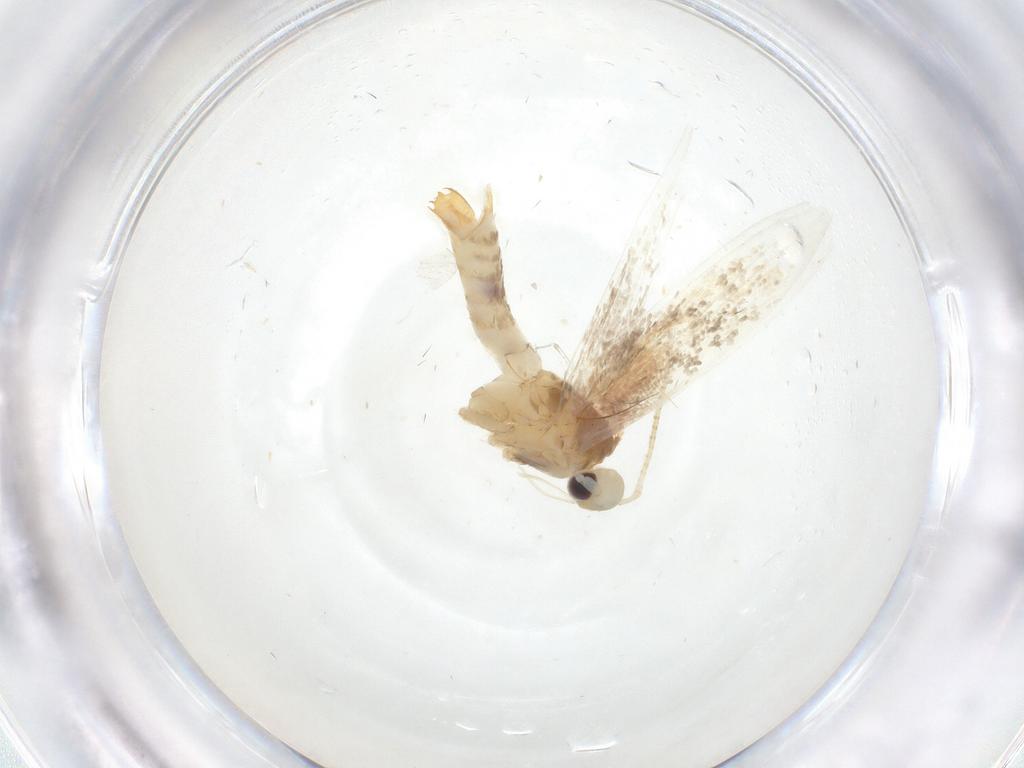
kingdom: Animalia
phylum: Arthropoda
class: Insecta
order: Lepidoptera
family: Gracillariidae
